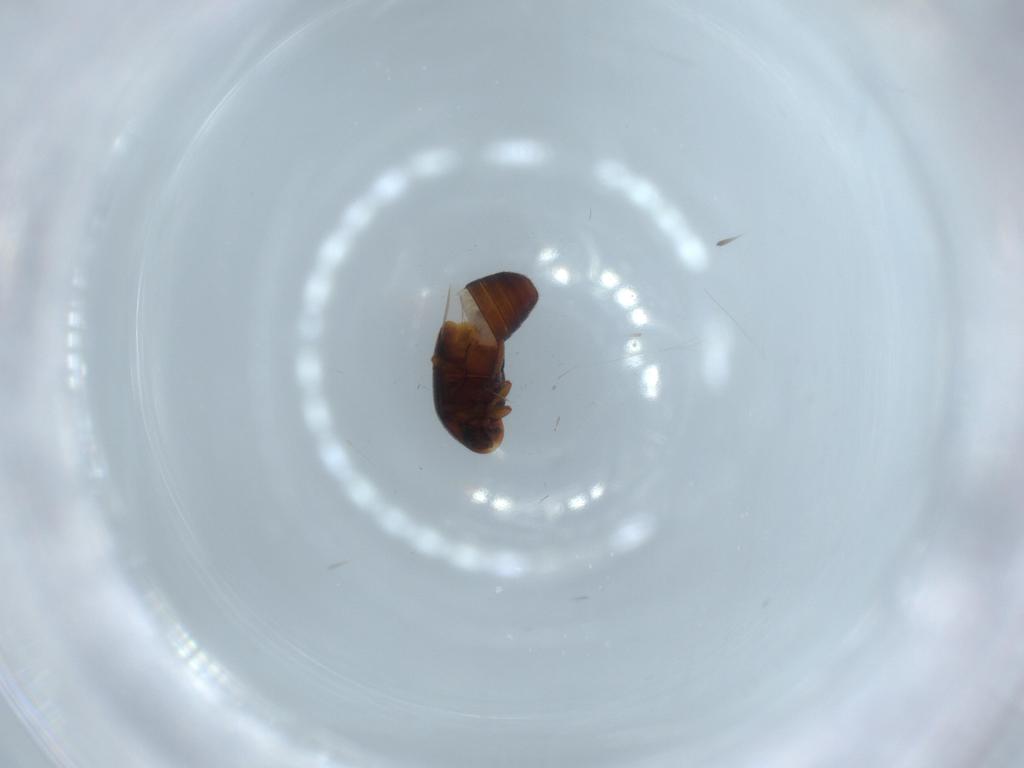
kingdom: Animalia
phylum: Arthropoda
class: Insecta
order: Coleoptera
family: Corylophidae
